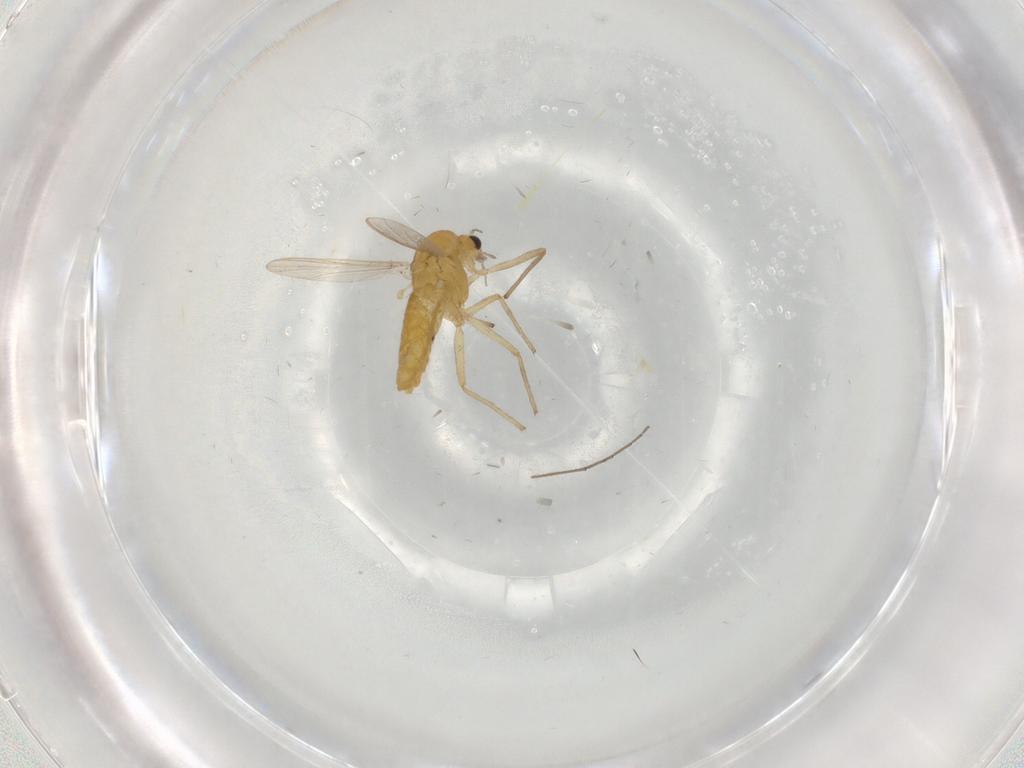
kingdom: Animalia
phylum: Arthropoda
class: Insecta
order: Diptera
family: Chironomidae
